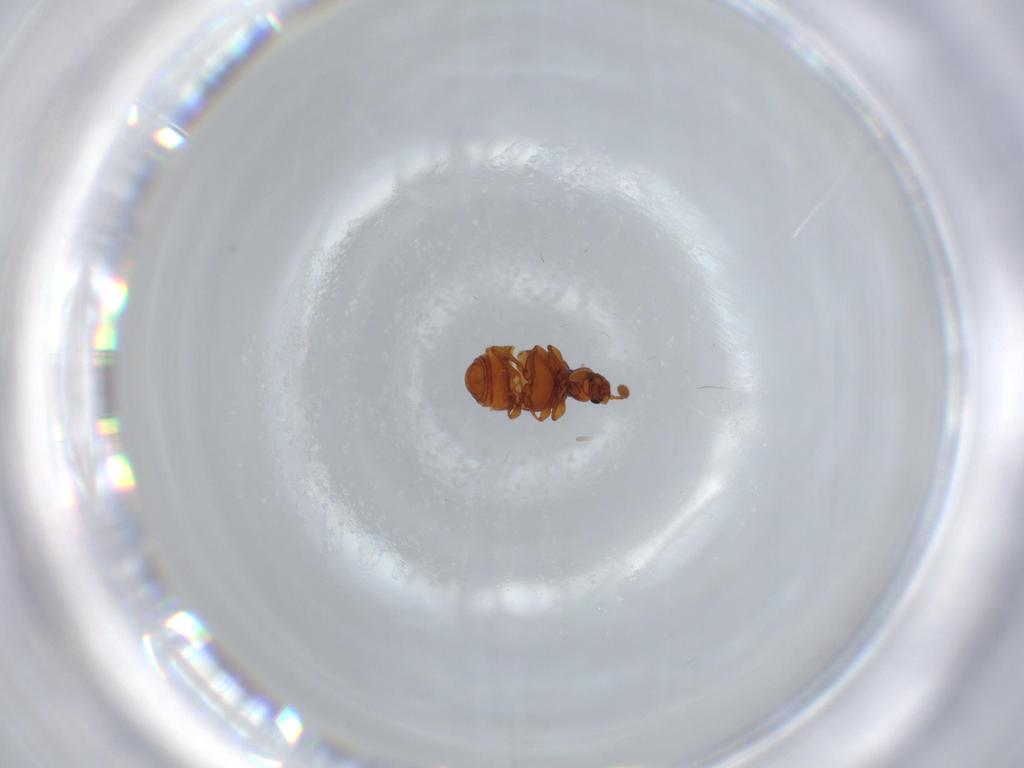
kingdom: Animalia
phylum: Arthropoda
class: Insecta
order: Coleoptera
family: Staphylinidae
